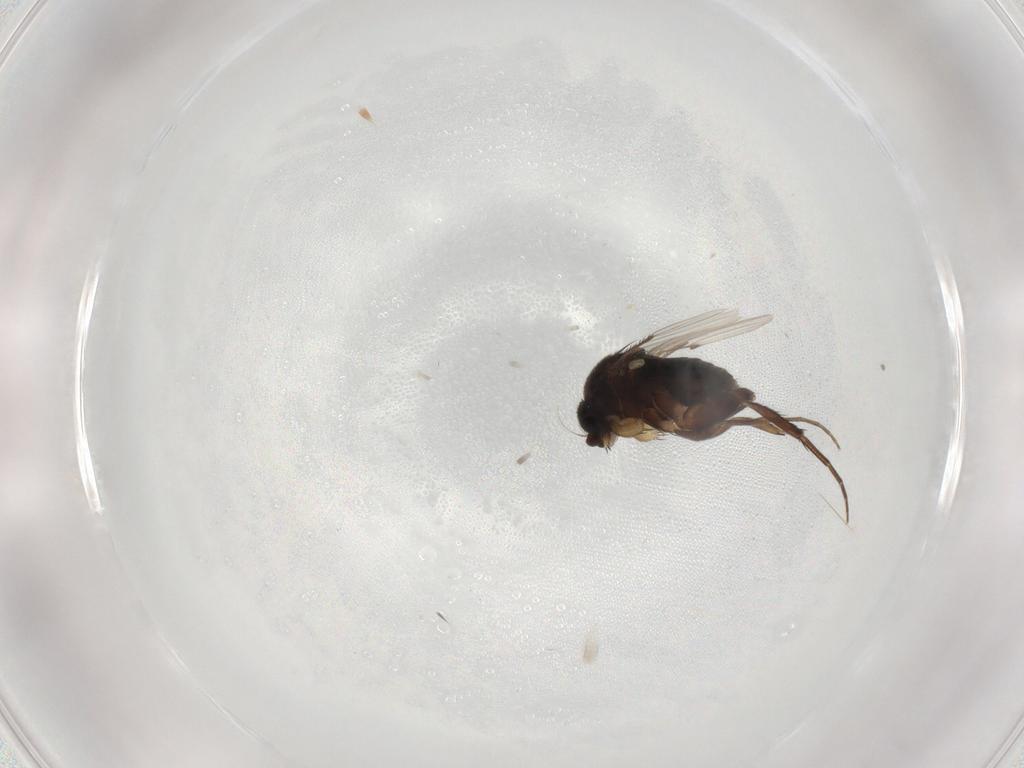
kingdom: Animalia
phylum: Arthropoda
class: Insecta
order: Diptera
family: Phoridae
